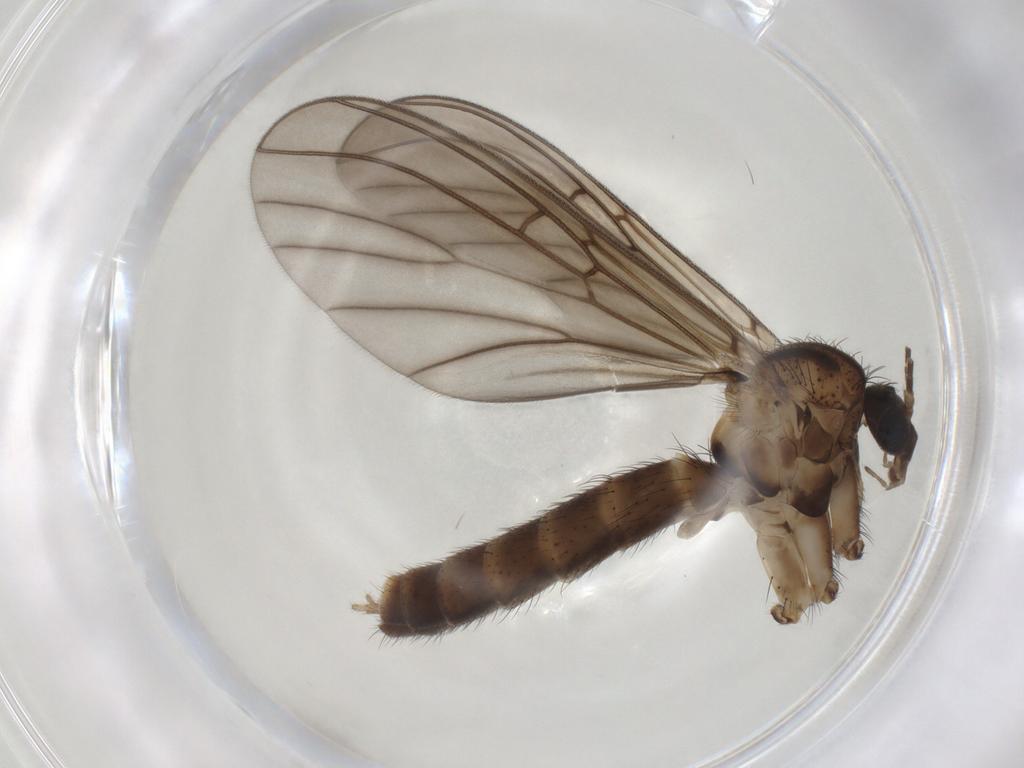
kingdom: Animalia
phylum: Arthropoda
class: Insecta
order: Diptera
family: Mycetophilidae
